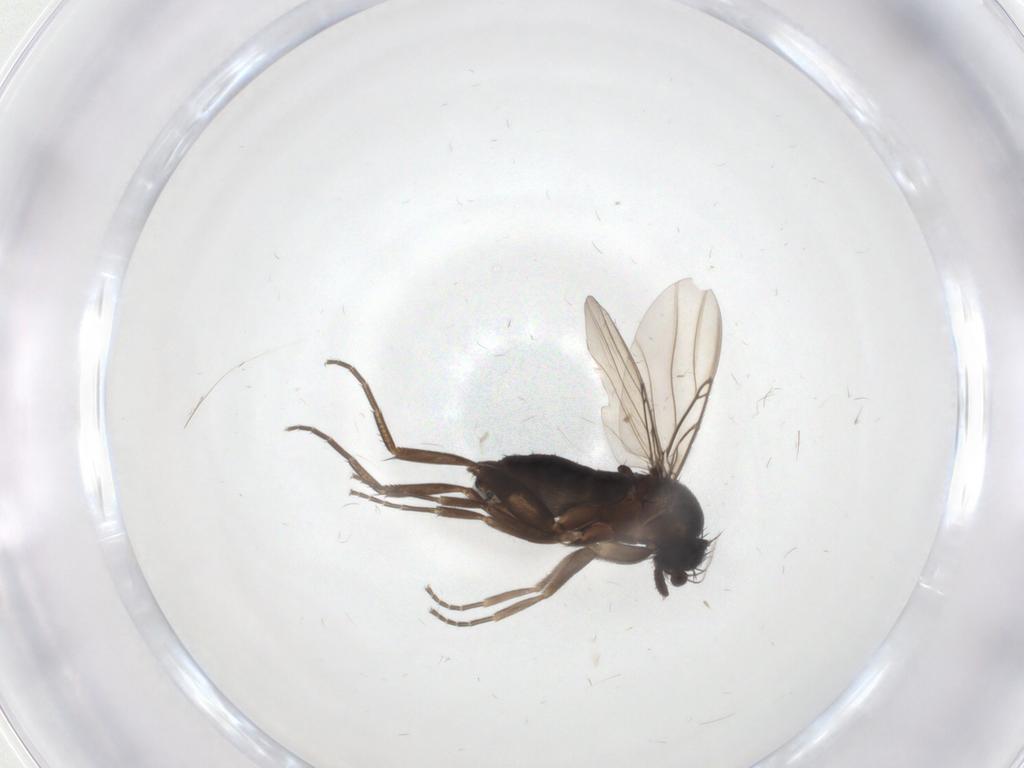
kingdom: Animalia
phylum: Arthropoda
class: Insecta
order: Diptera
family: Phoridae
